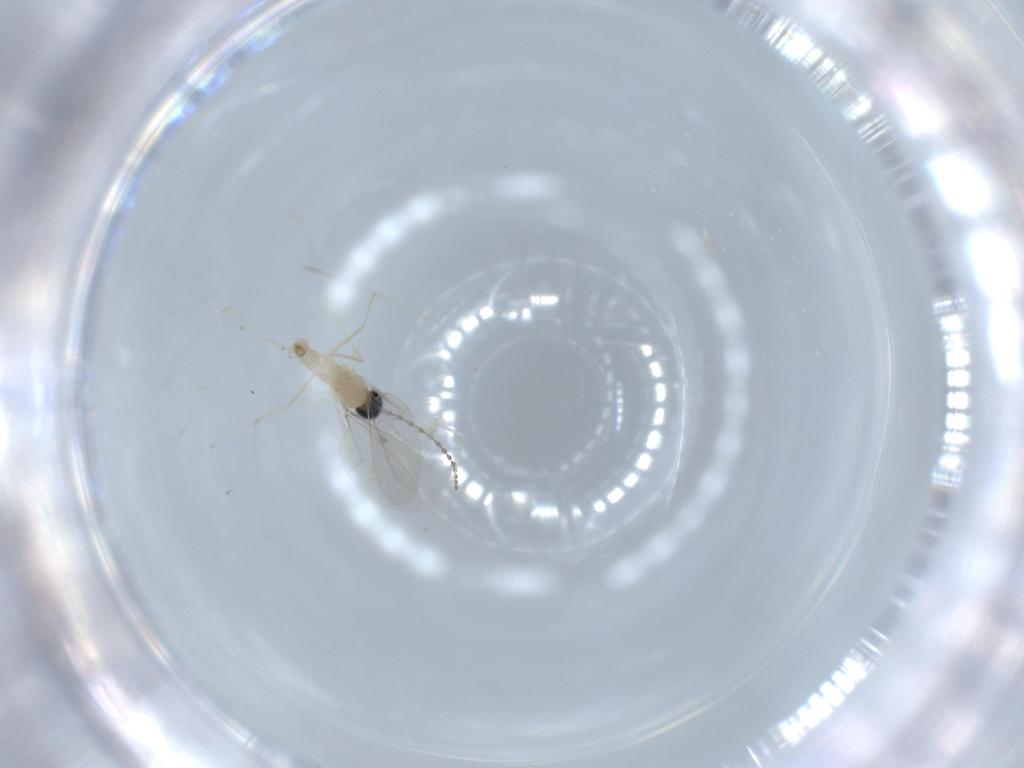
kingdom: Animalia
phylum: Arthropoda
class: Insecta
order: Diptera
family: Cecidomyiidae
